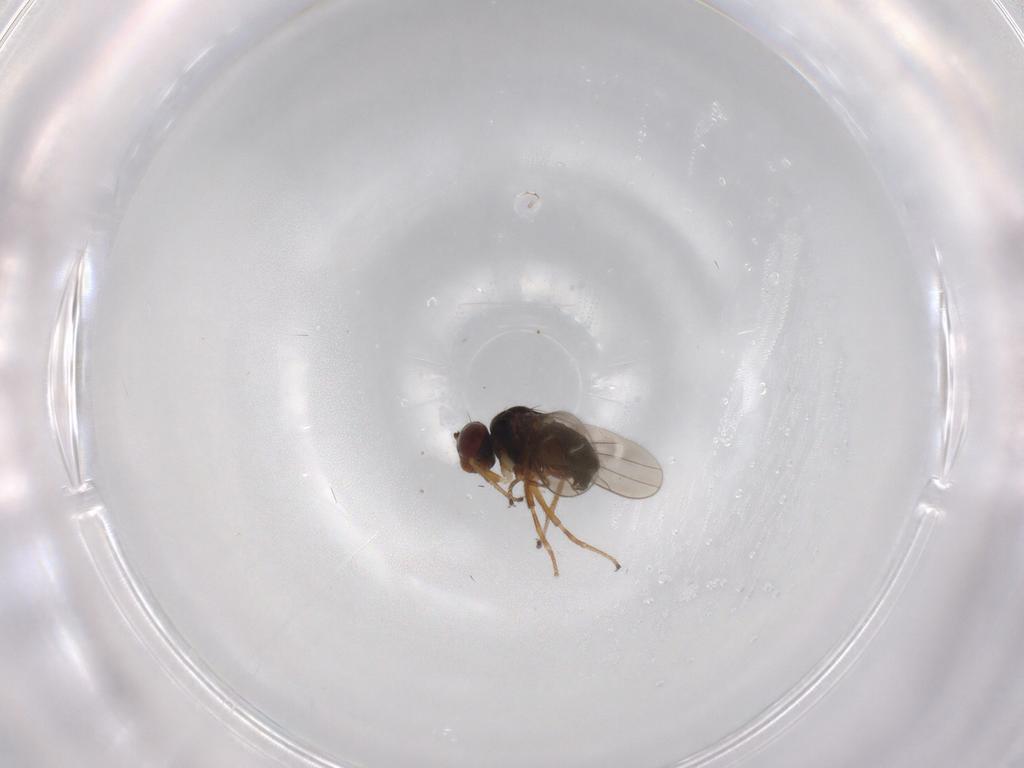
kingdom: Animalia
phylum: Arthropoda
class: Insecta
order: Diptera
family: Ephydridae
